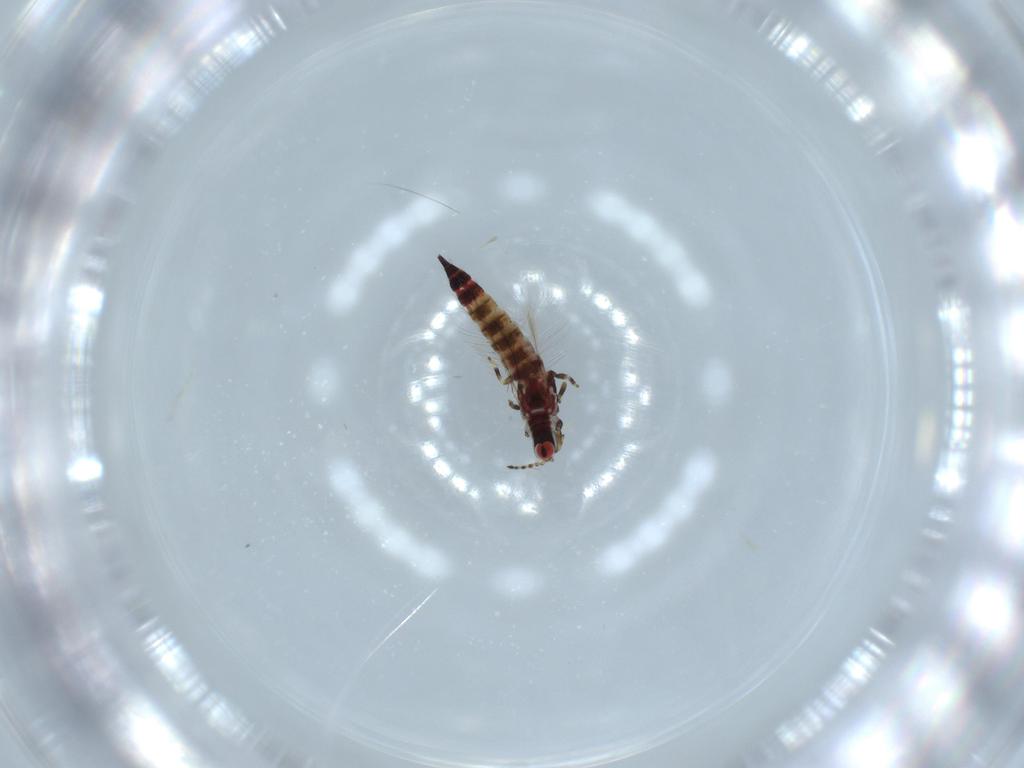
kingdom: Animalia
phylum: Arthropoda
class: Insecta
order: Thysanoptera
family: Phlaeothripidae
